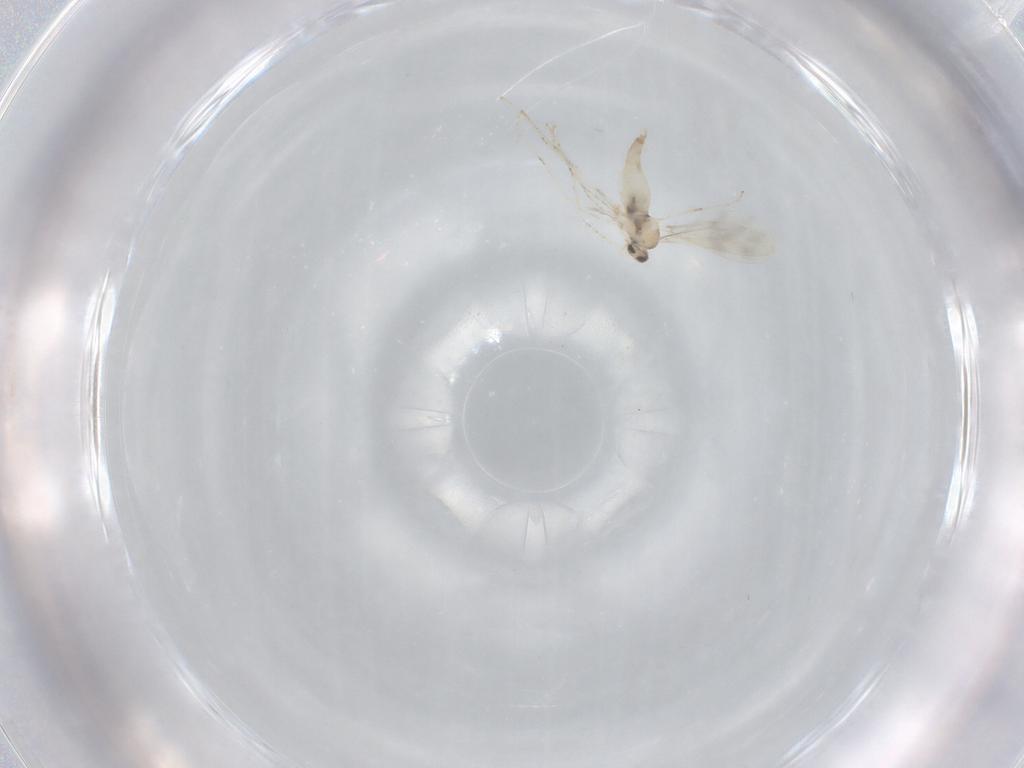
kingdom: Animalia
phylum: Arthropoda
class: Insecta
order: Diptera
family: Cecidomyiidae
